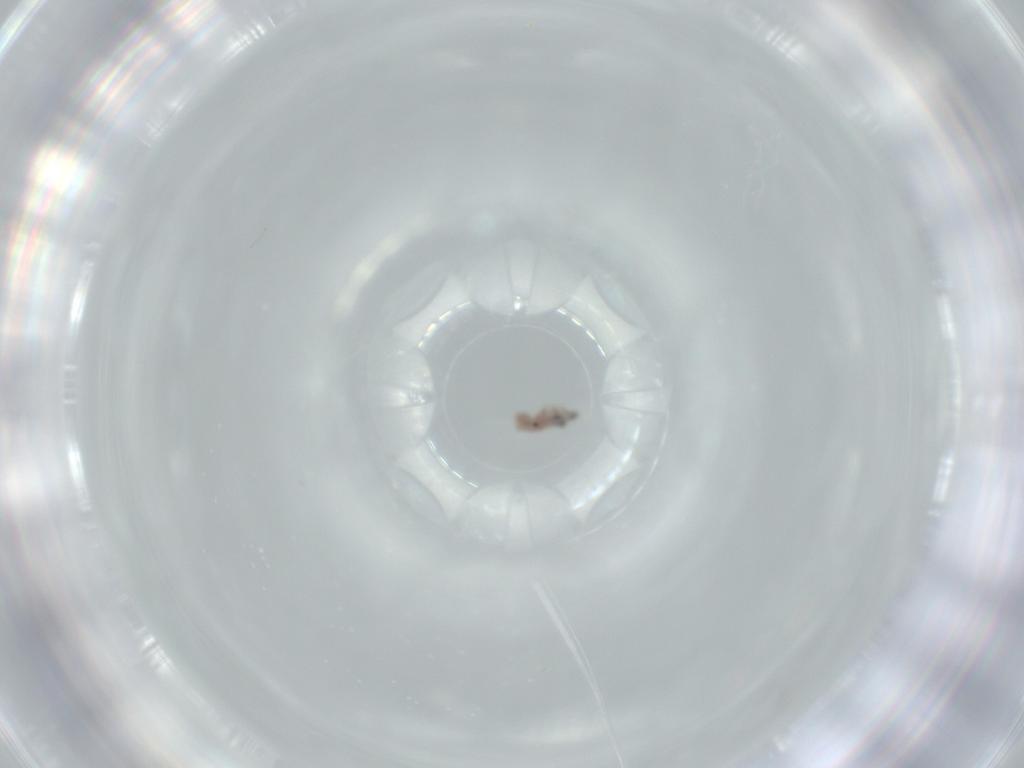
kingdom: Animalia
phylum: Arthropoda
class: Insecta
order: Psocodea
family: Psoquillidae
